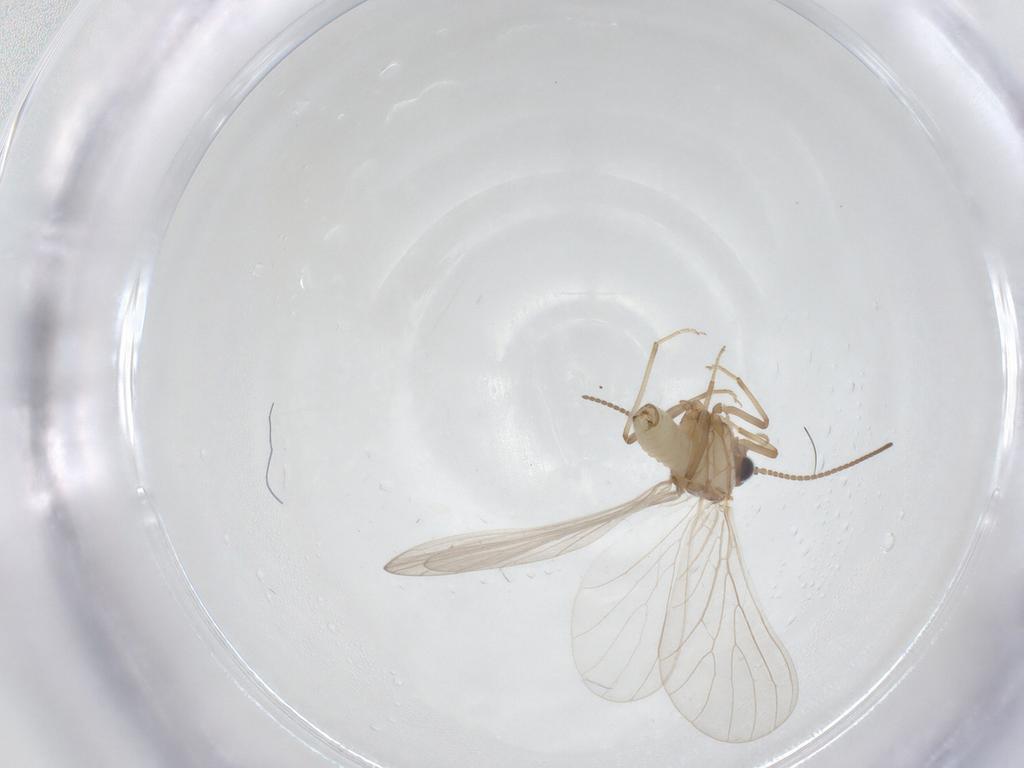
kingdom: Animalia
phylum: Arthropoda
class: Insecta
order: Neuroptera
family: Coniopterygidae
